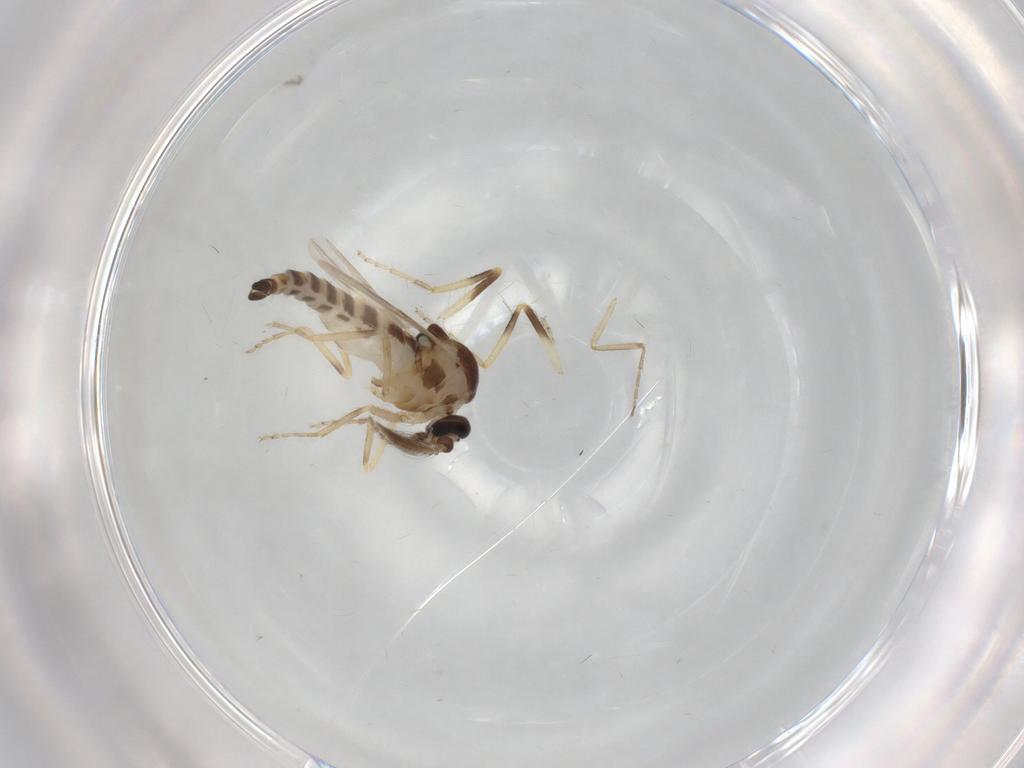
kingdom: Animalia
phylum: Arthropoda
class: Insecta
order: Diptera
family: Ceratopogonidae
